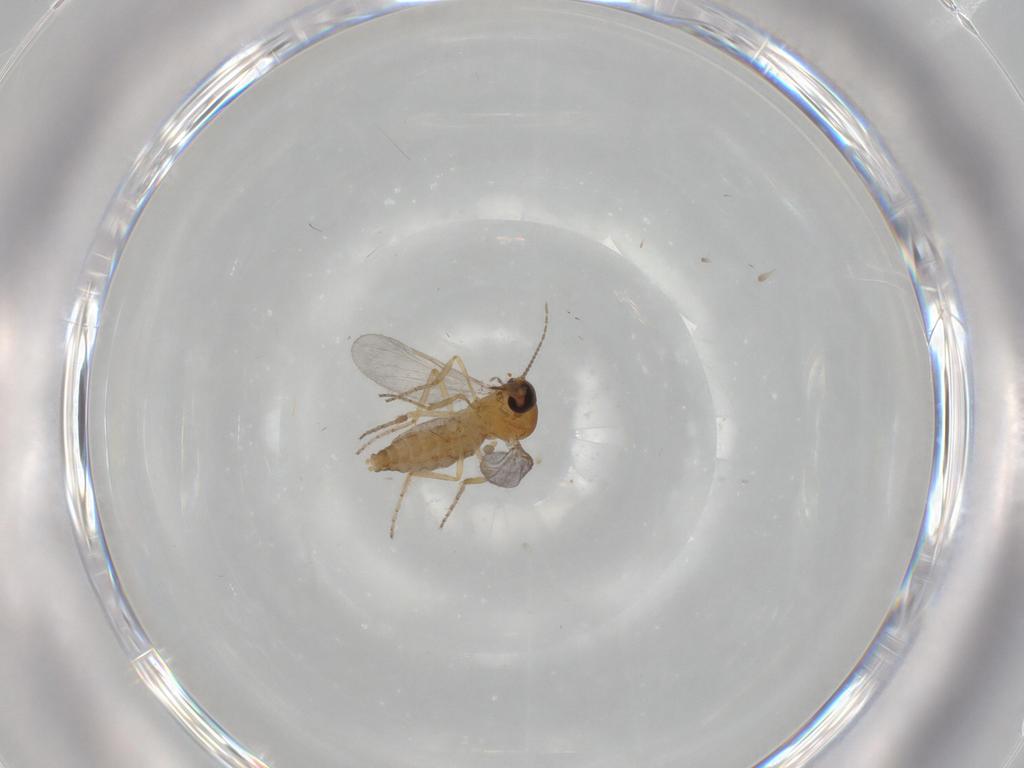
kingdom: Animalia
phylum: Arthropoda
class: Insecta
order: Diptera
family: Ceratopogonidae
